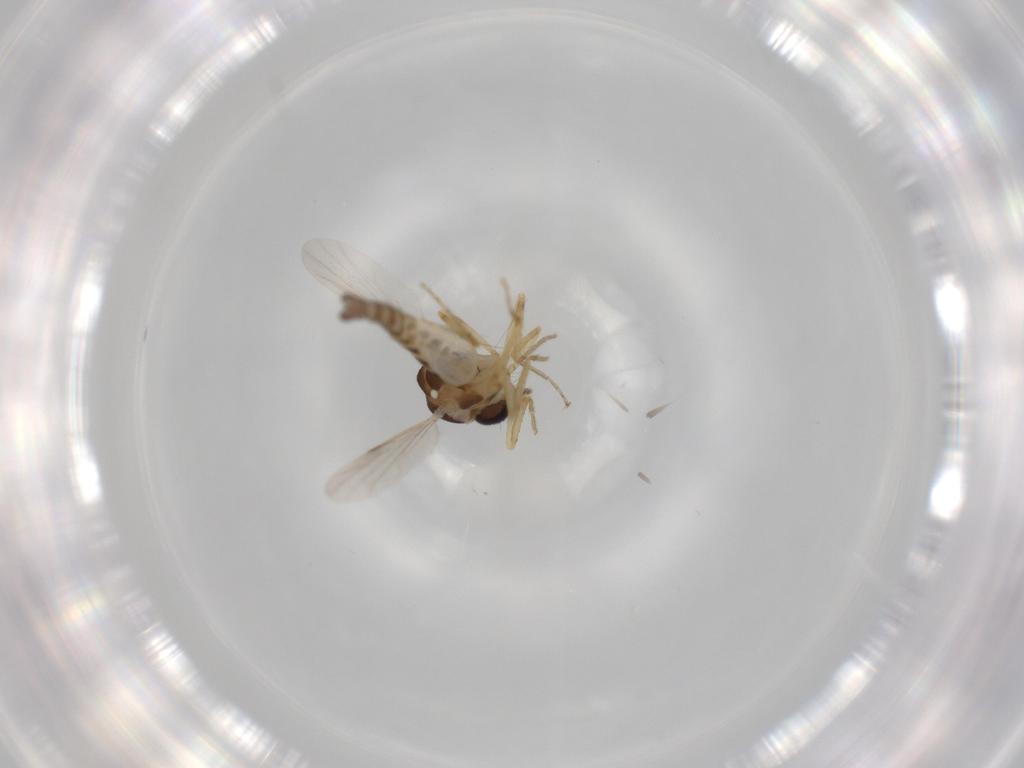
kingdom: Animalia
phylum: Arthropoda
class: Insecta
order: Diptera
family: Ceratopogonidae
